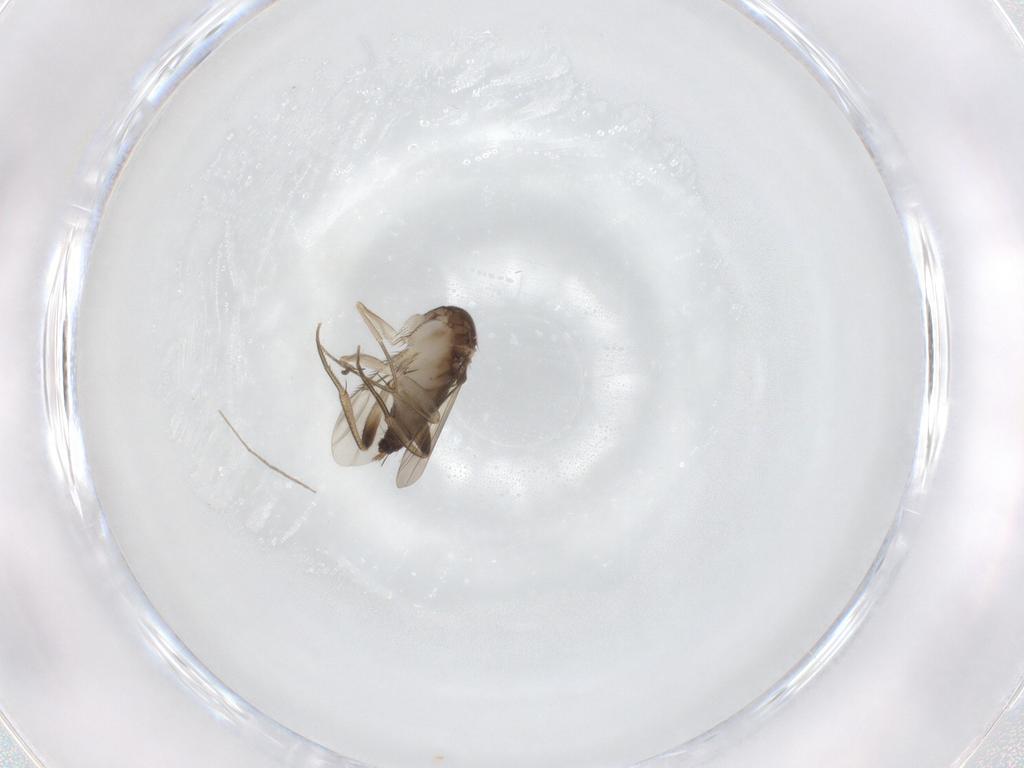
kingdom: Animalia
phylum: Arthropoda
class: Insecta
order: Diptera
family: Phoridae
